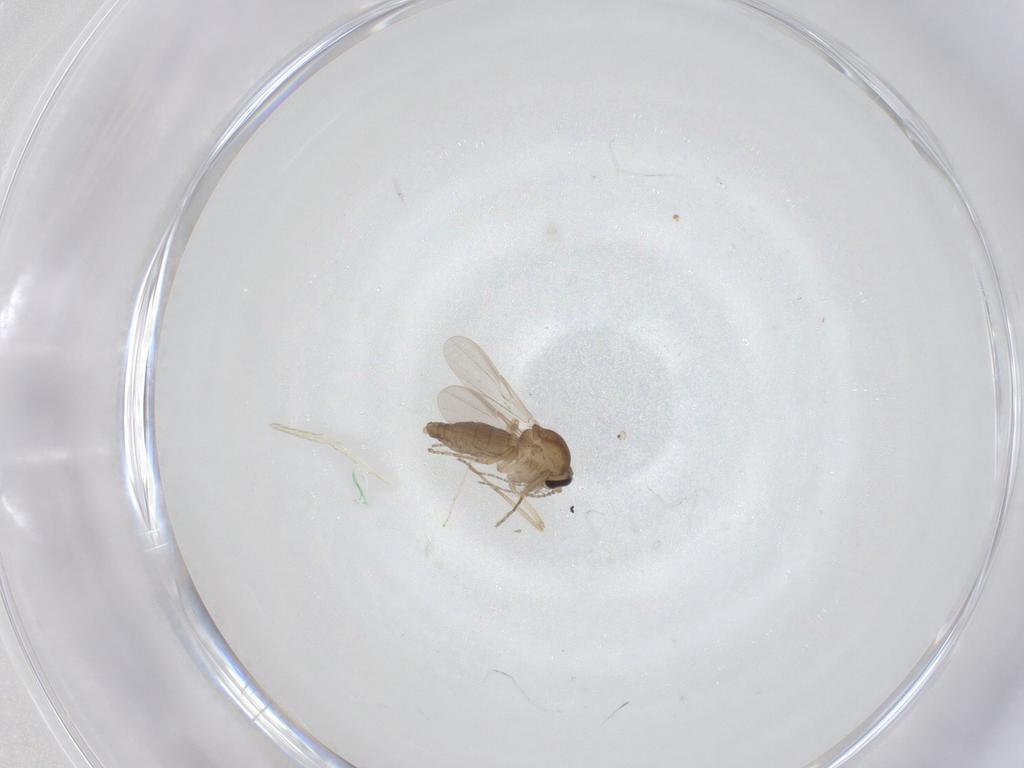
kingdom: Animalia
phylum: Arthropoda
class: Insecta
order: Diptera
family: Ceratopogonidae
